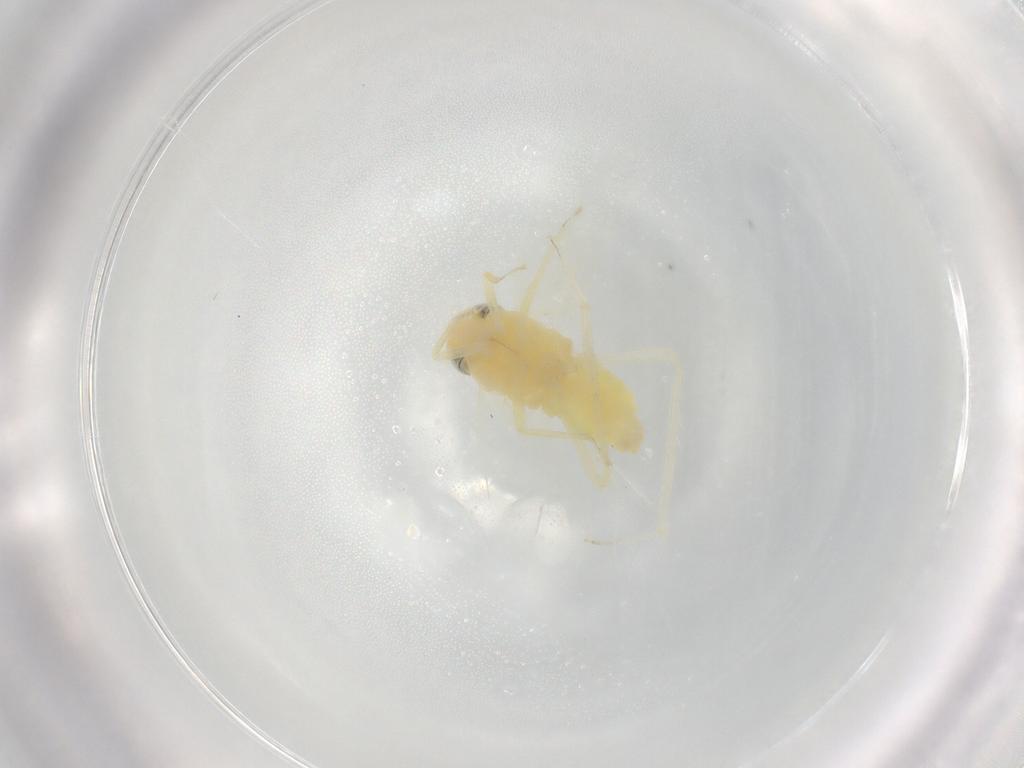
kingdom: Animalia
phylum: Arthropoda
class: Insecta
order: Hemiptera
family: Cicadellidae
